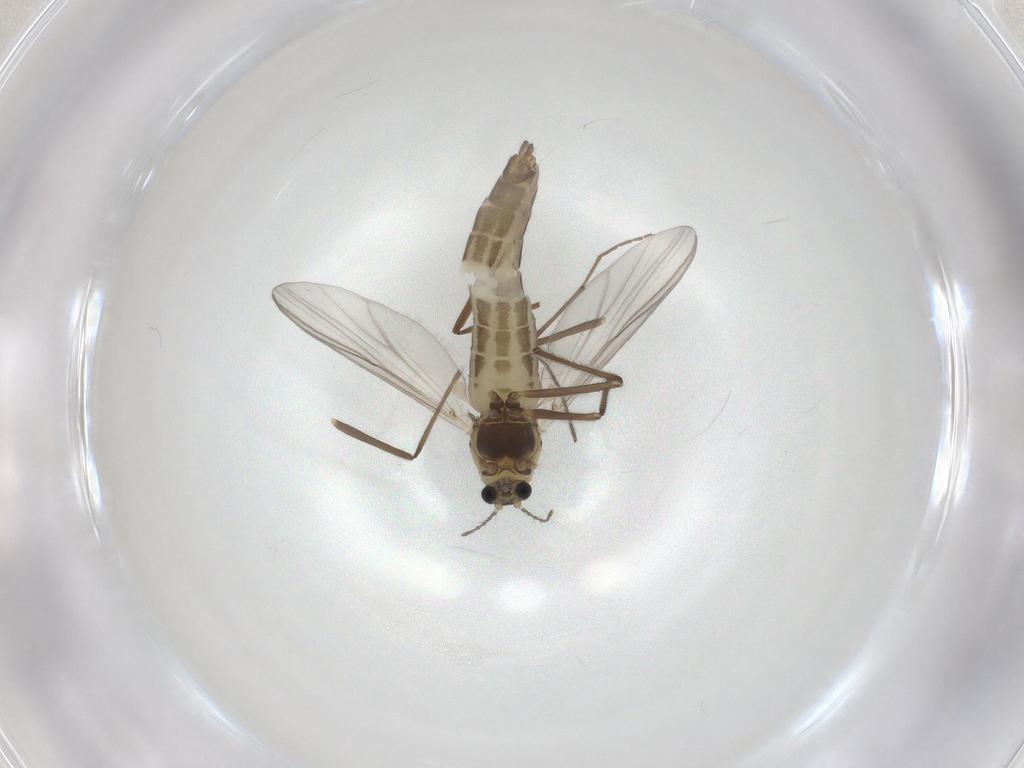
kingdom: Animalia
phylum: Arthropoda
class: Insecta
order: Diptera
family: Chironomidae
